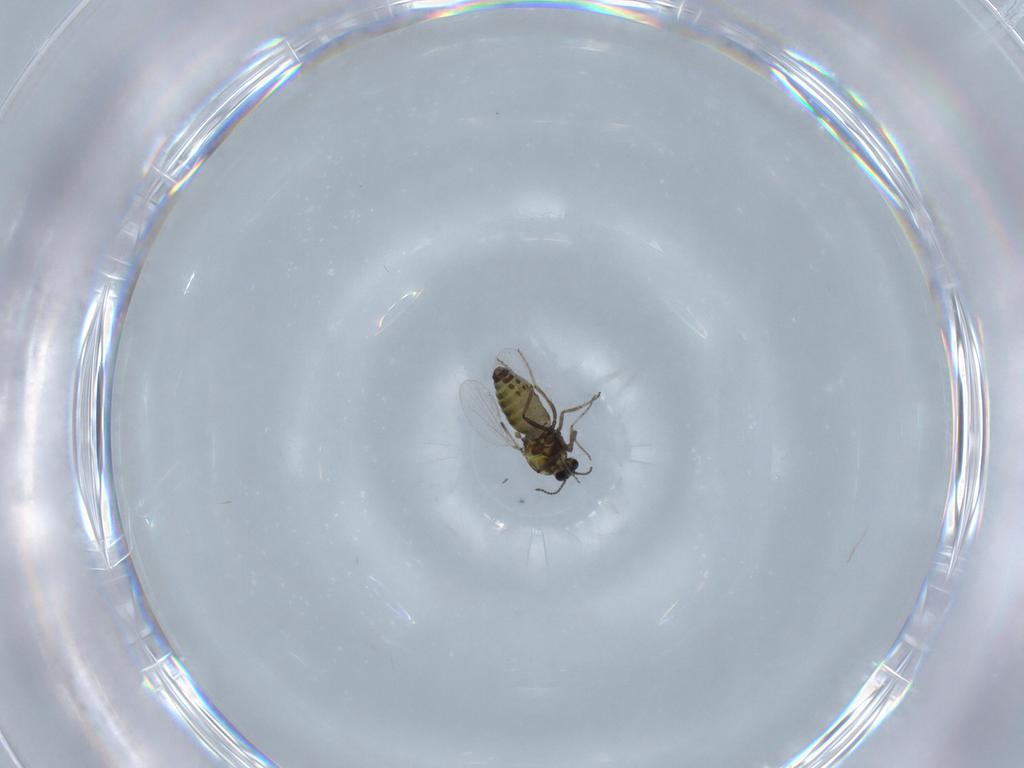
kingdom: Animalia
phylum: Arthropoda
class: Insecta
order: Diptera
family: Ceratopogonidae
